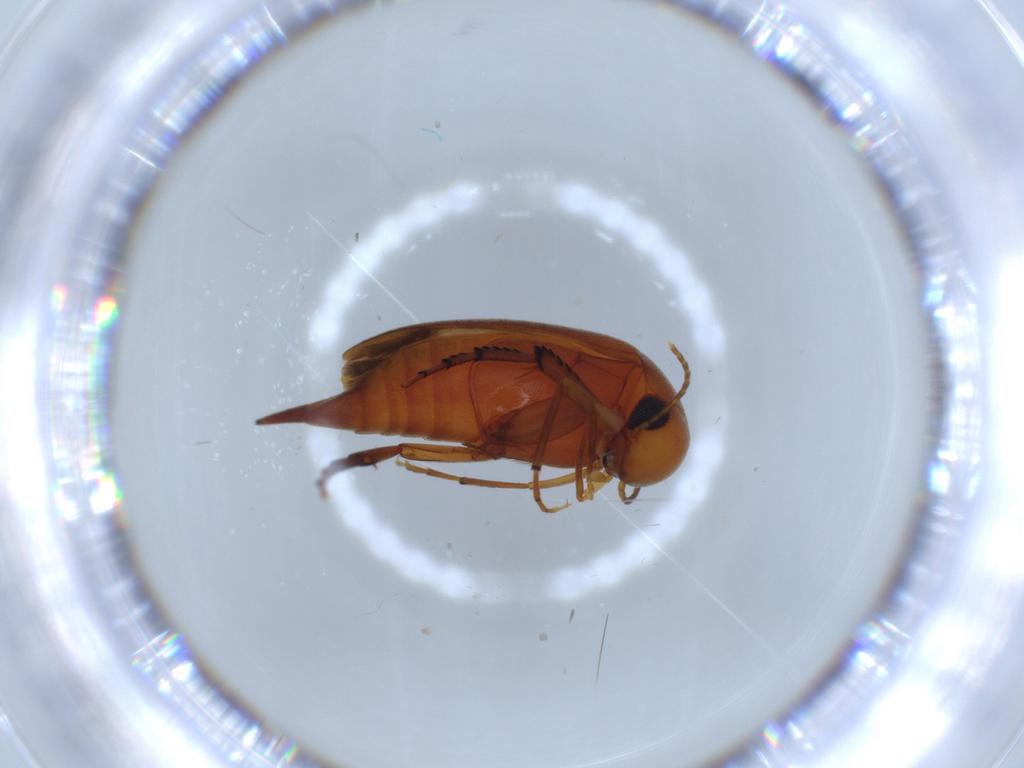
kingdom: Animalia
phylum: Arthropoda
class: Insecta
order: Coleoptera
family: Mordellidae
